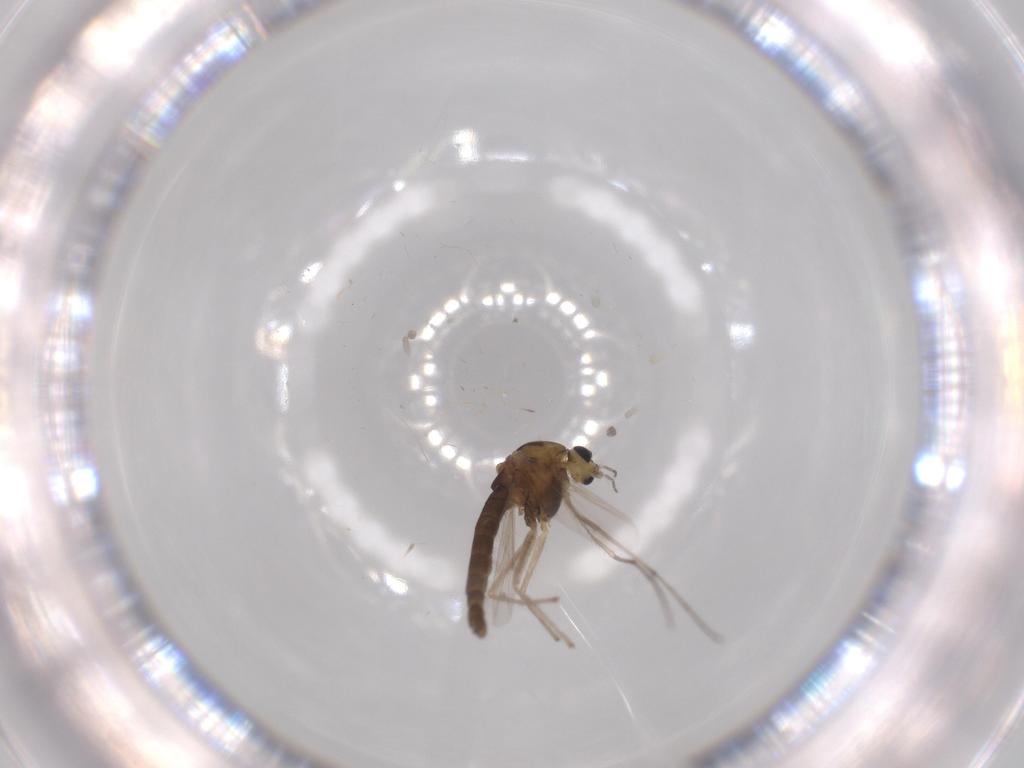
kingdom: Animalia
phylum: Arthropoda
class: Insecta
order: Diptera
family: Chironomidae
